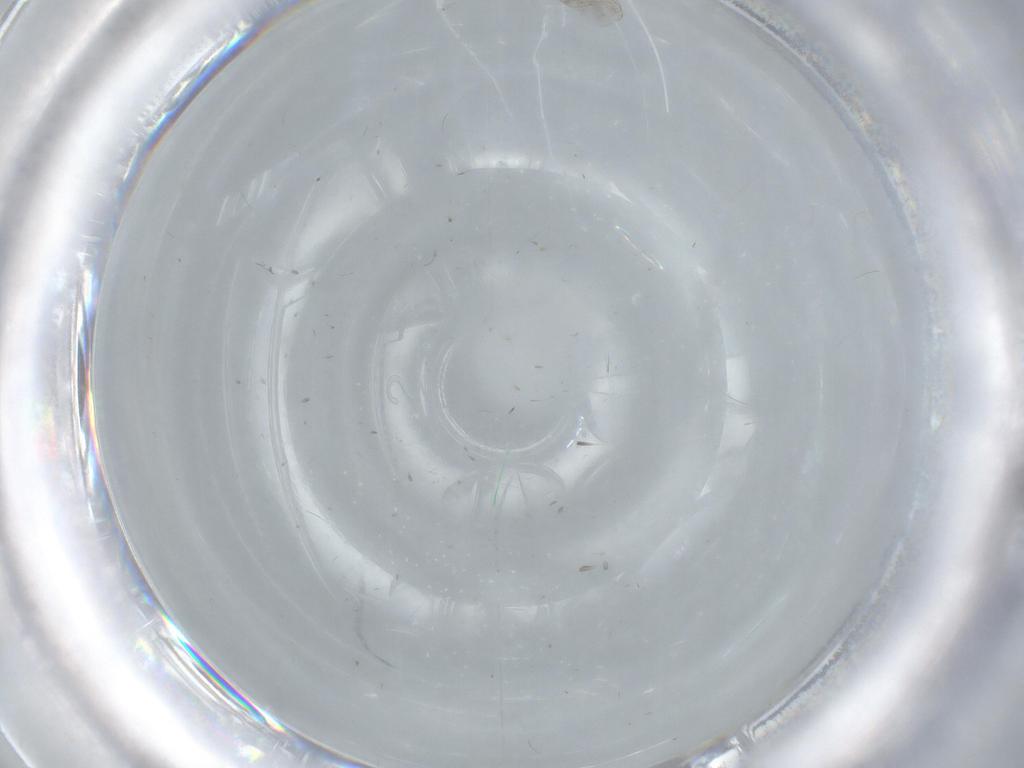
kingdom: Animalia
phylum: Arthropoda
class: Insecta
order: Diptera
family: Cecidomyiidae
